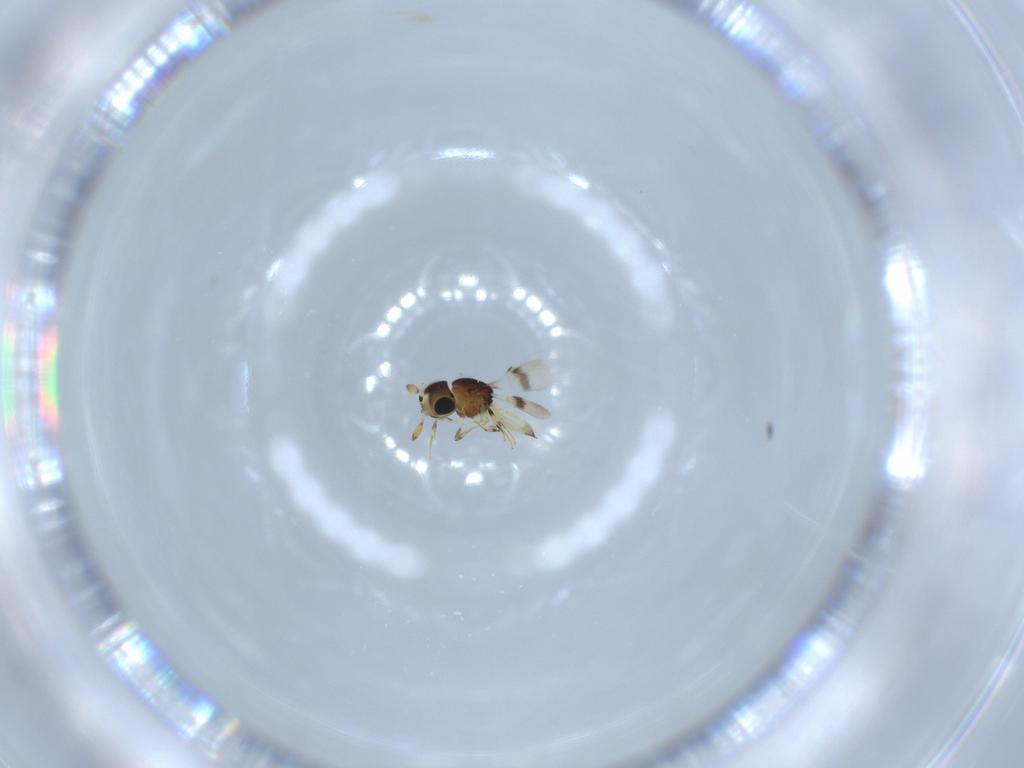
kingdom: Animalia
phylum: Arthropoda
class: Insecta
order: Hymenoptera
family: Scelionidae
